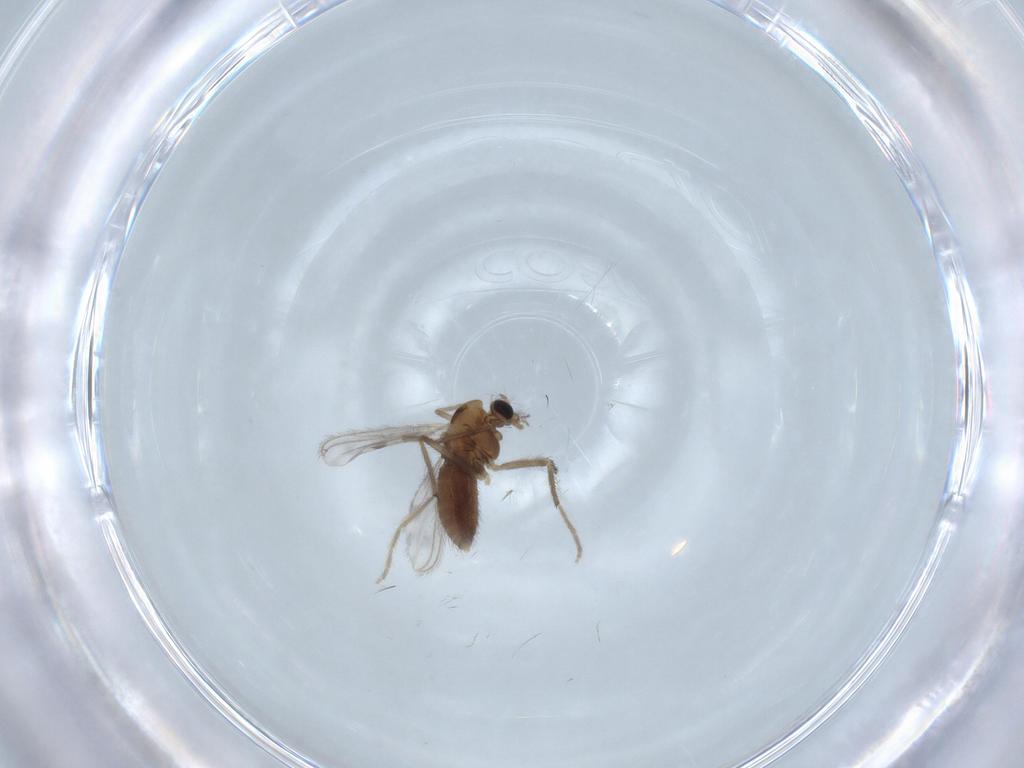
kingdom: Animalia
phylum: Arthropoda
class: Insecta
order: Diptera
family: Chironomidae
